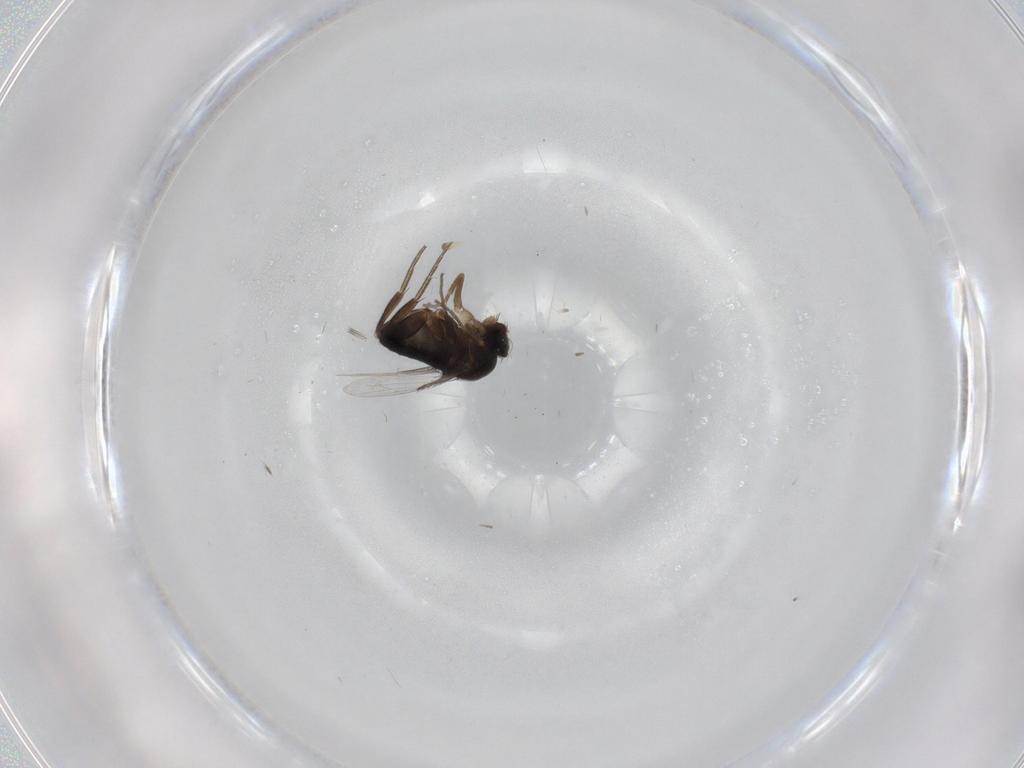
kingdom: Animalia
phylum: Arthropoda
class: Insecta
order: Diptera
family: Phoridae
